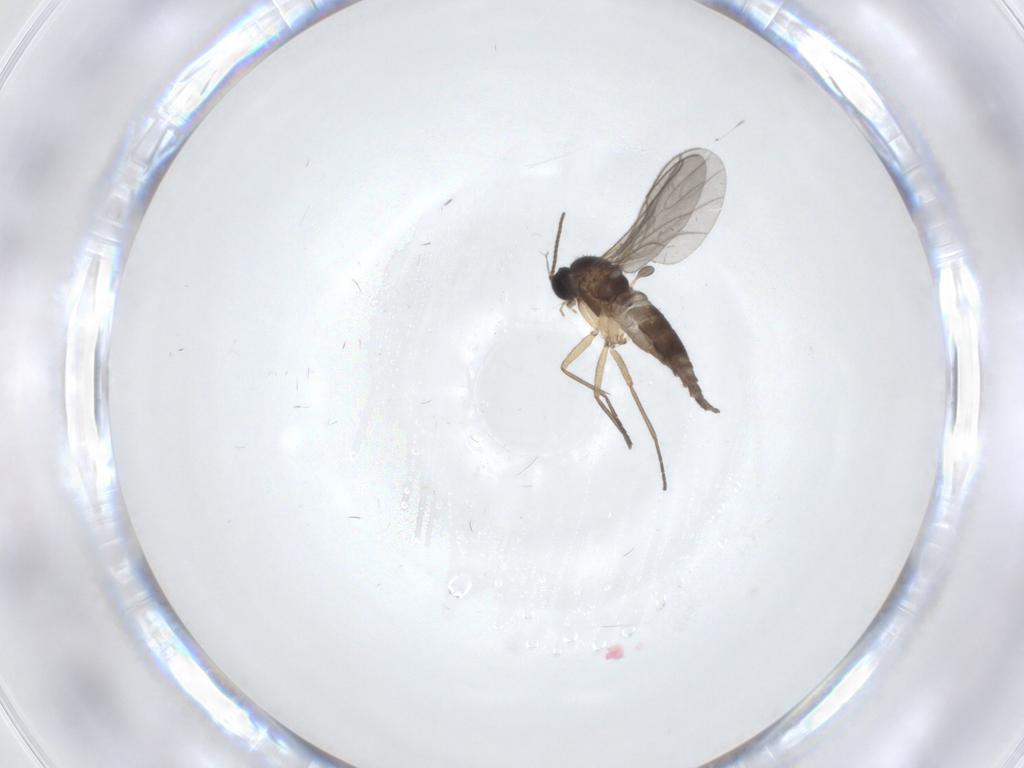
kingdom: Animalia
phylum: Arthropoda
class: Insecta
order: Diptera
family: Sciaridae
